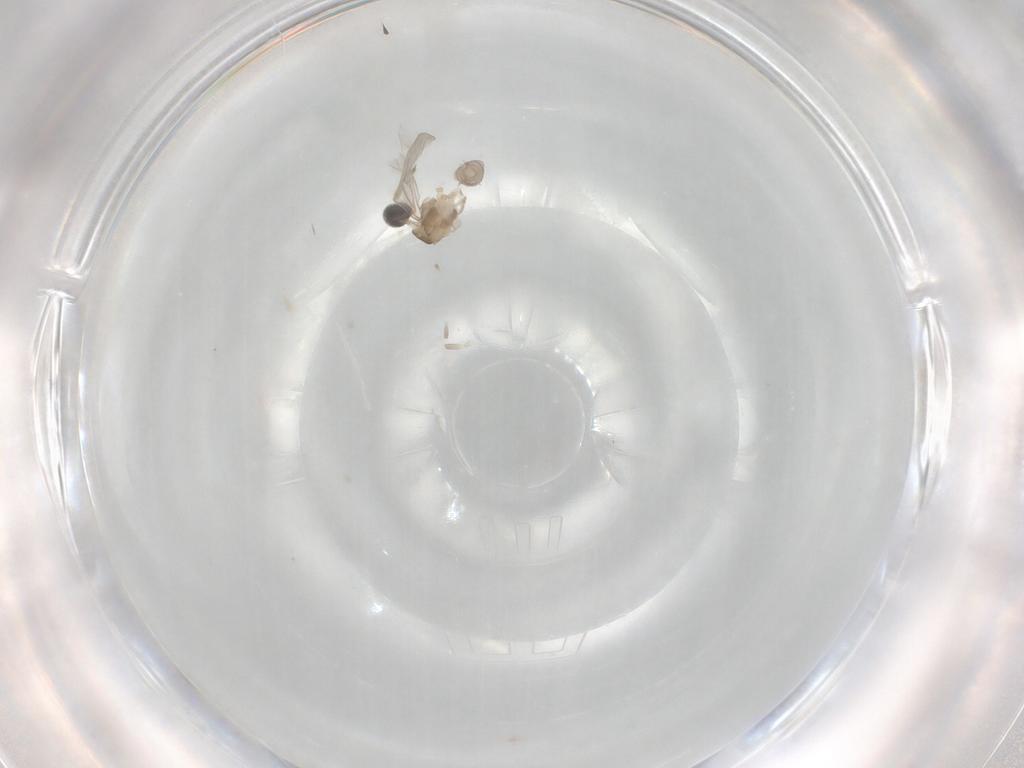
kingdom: Animalia
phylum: Arthropoda
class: Insecta
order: Diptera
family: Cecidomyiidae
